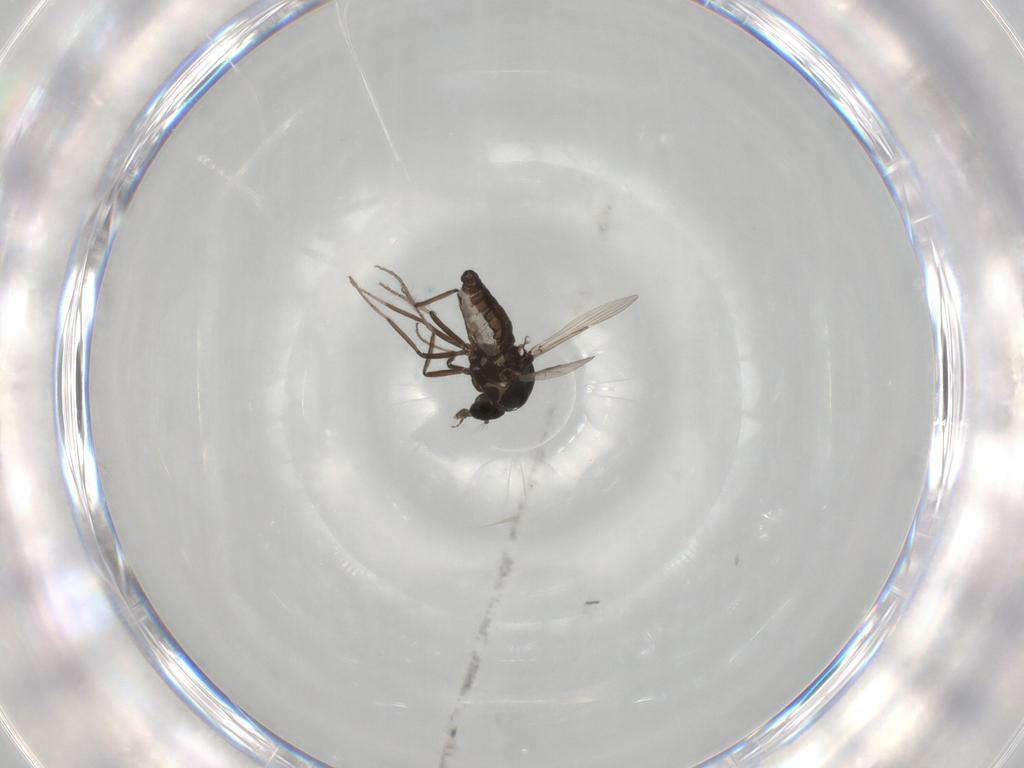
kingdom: Animalia
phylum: Arthropoda
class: Insecta
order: Diptera
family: Ceratopogonidae
